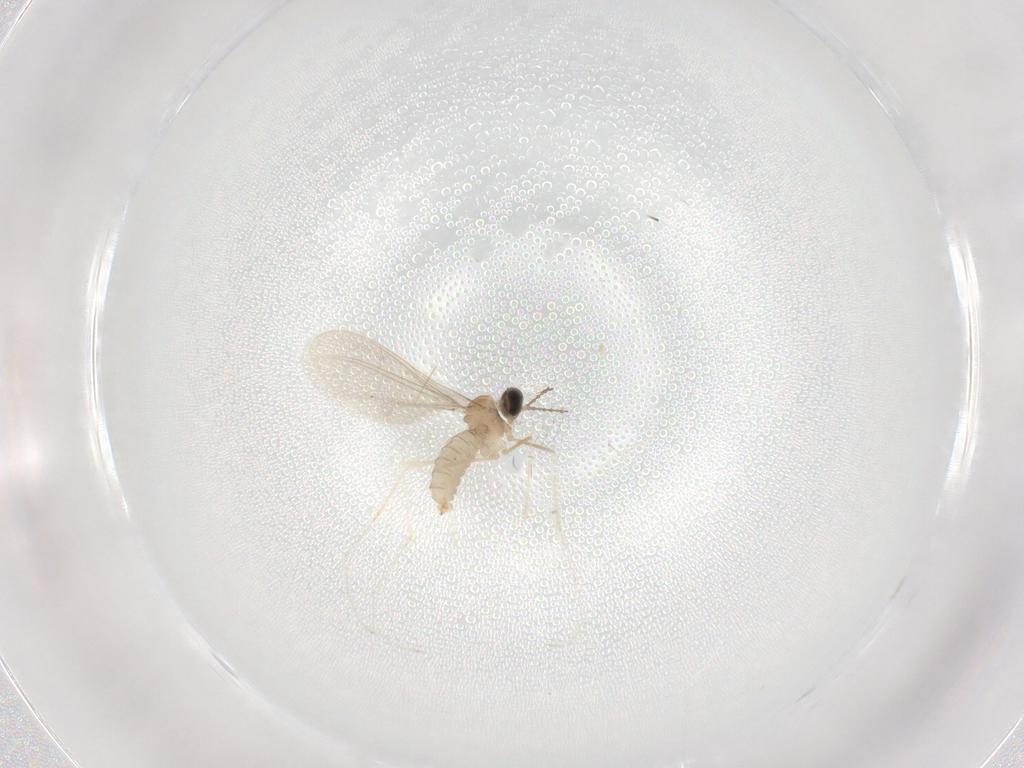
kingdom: Animalia
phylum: Arthropoda
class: Insecta
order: Diptera
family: Cecidomyiidae
